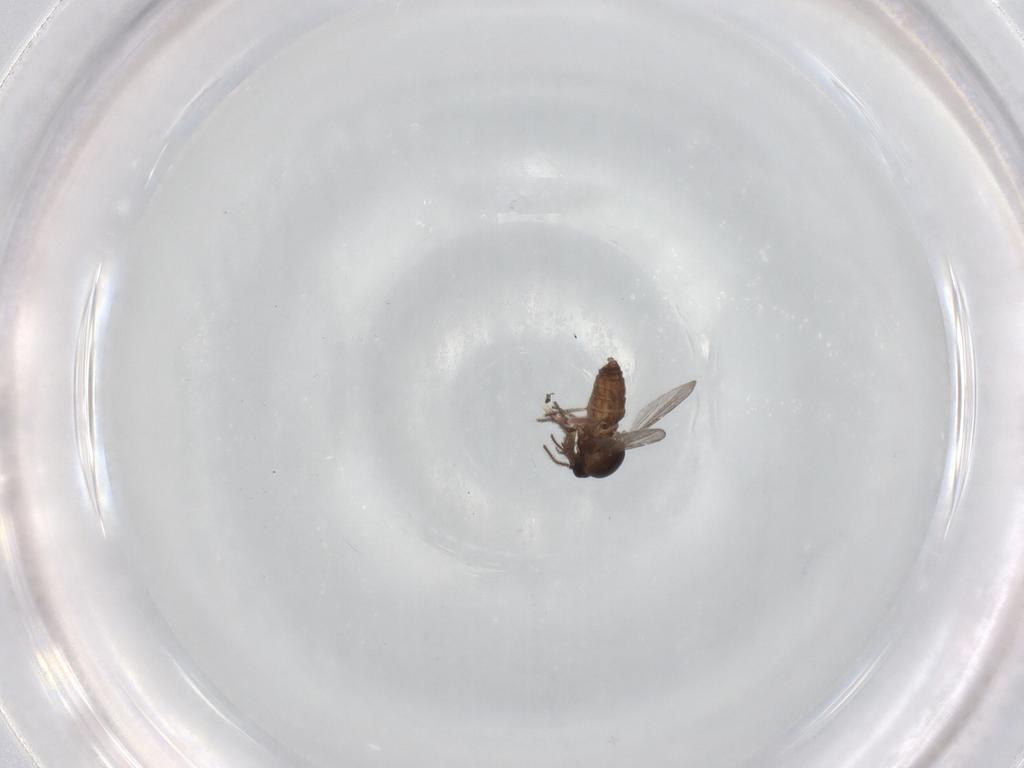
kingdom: Animalia
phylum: Arthropoda
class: Insecta
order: Diptera
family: Ceratopogonidae
